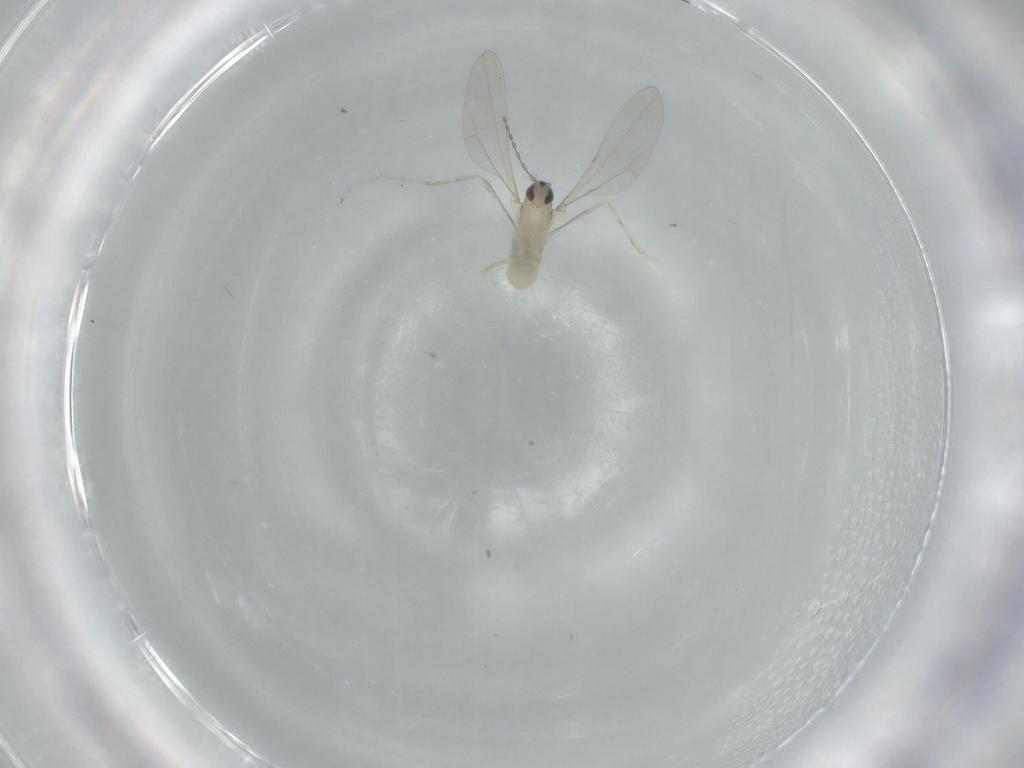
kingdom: Animalia
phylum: Arthropoda
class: Insecta
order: Diptera
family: Cecidomyiidae
